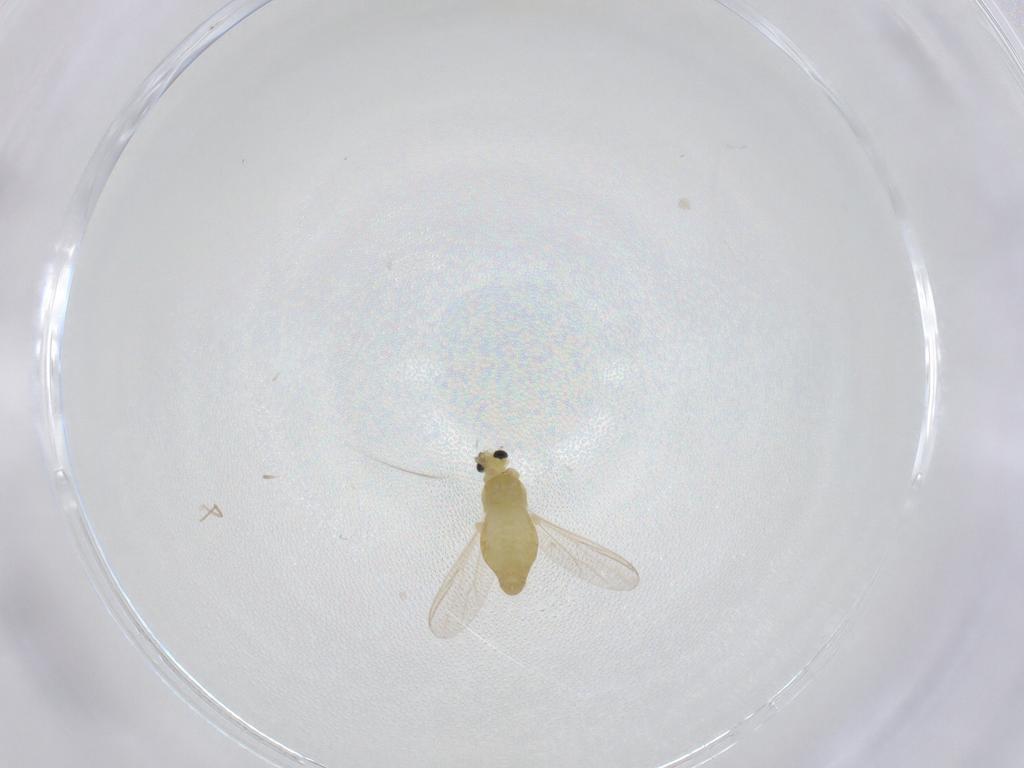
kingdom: Animalia
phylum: Arthropoda
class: Insecta
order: Diptera
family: Chironomidae
